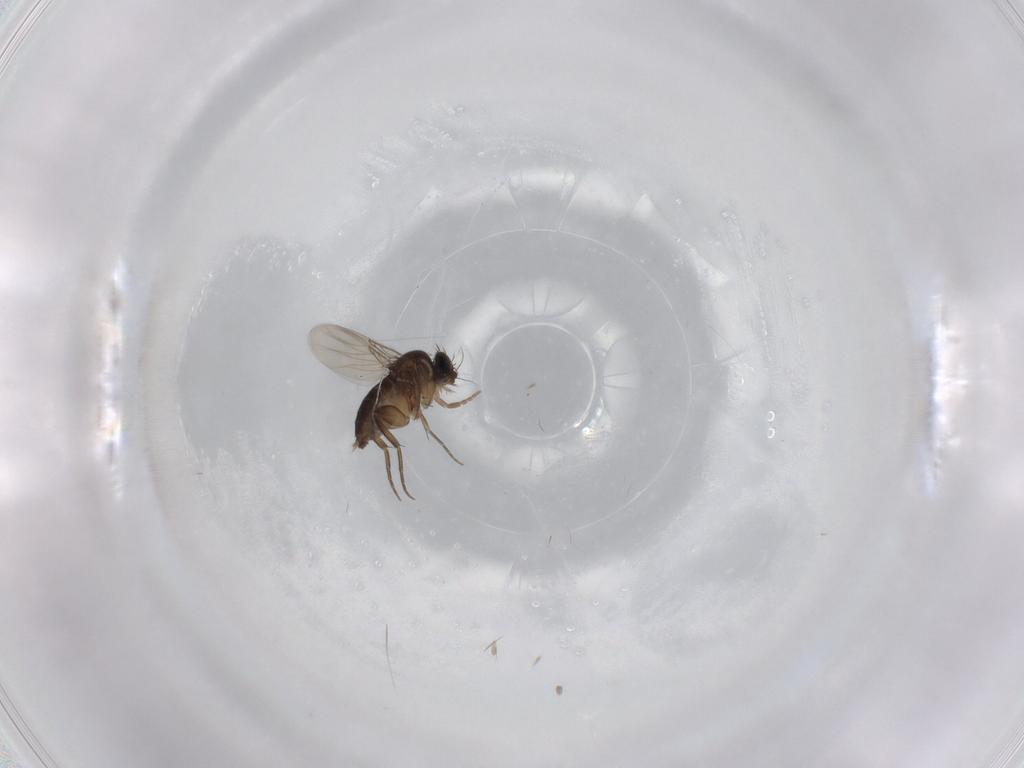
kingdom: Animalia
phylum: Arthropoda
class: Insecta
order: Diptera
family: Phoridae
